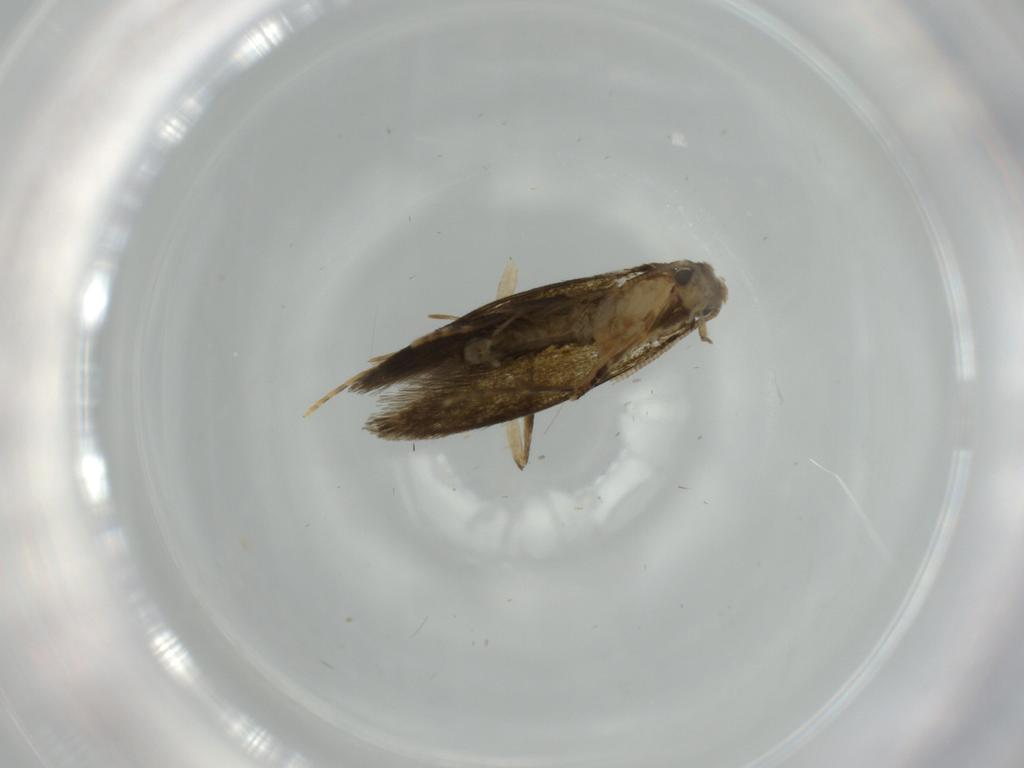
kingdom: Animalia
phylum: Arthropoda
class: Insecta
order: Lepidoptera
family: Tineidae
